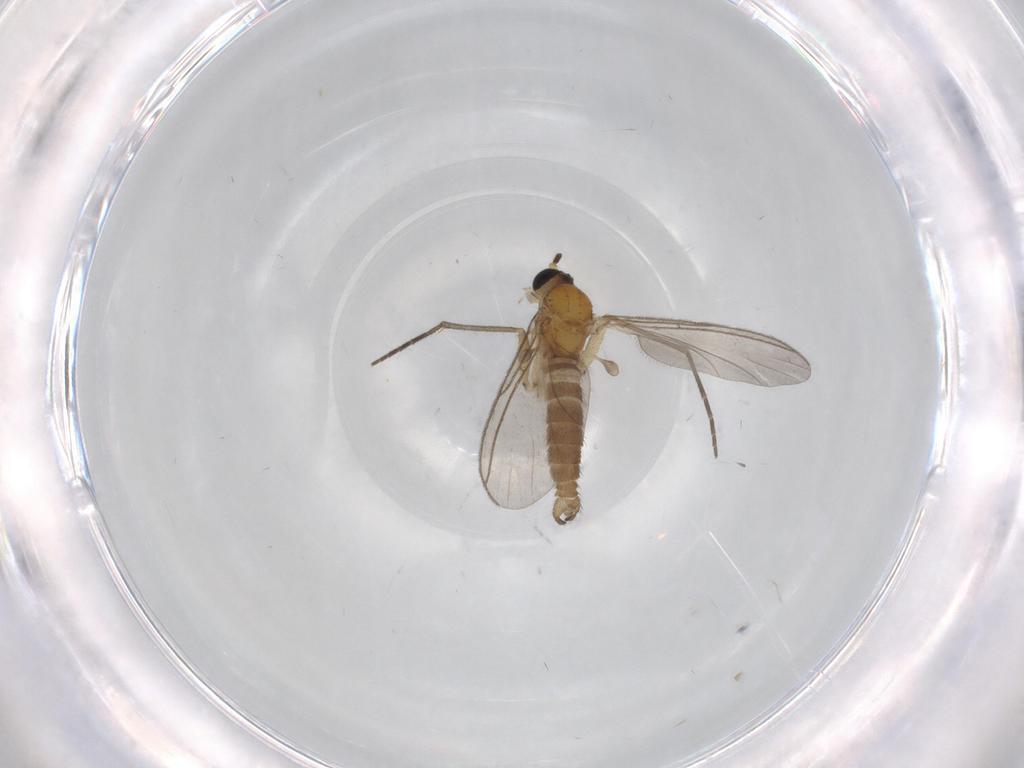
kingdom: Animalia
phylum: Arthropoda
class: Insecta
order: Diptera
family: Sciaridae
